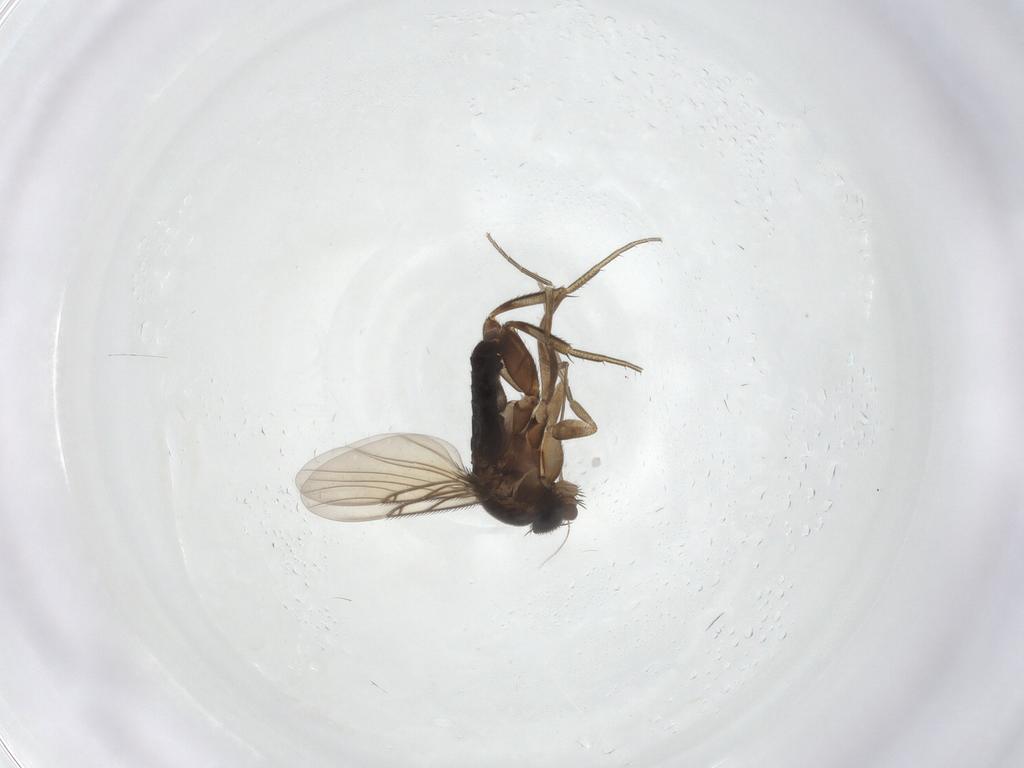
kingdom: Animalia
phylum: Arthropoda
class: Insecta
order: Diptera
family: Phoridae
